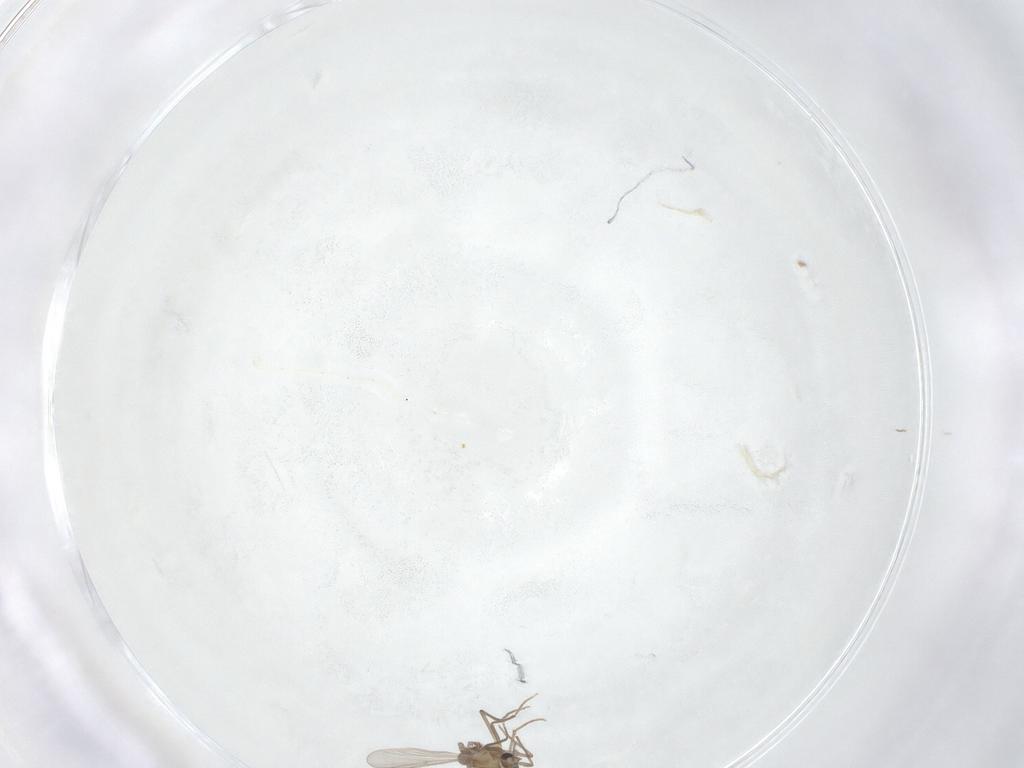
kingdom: Animalia
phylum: Arthropoda
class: Insecta
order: Diptera
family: Chironomidae
